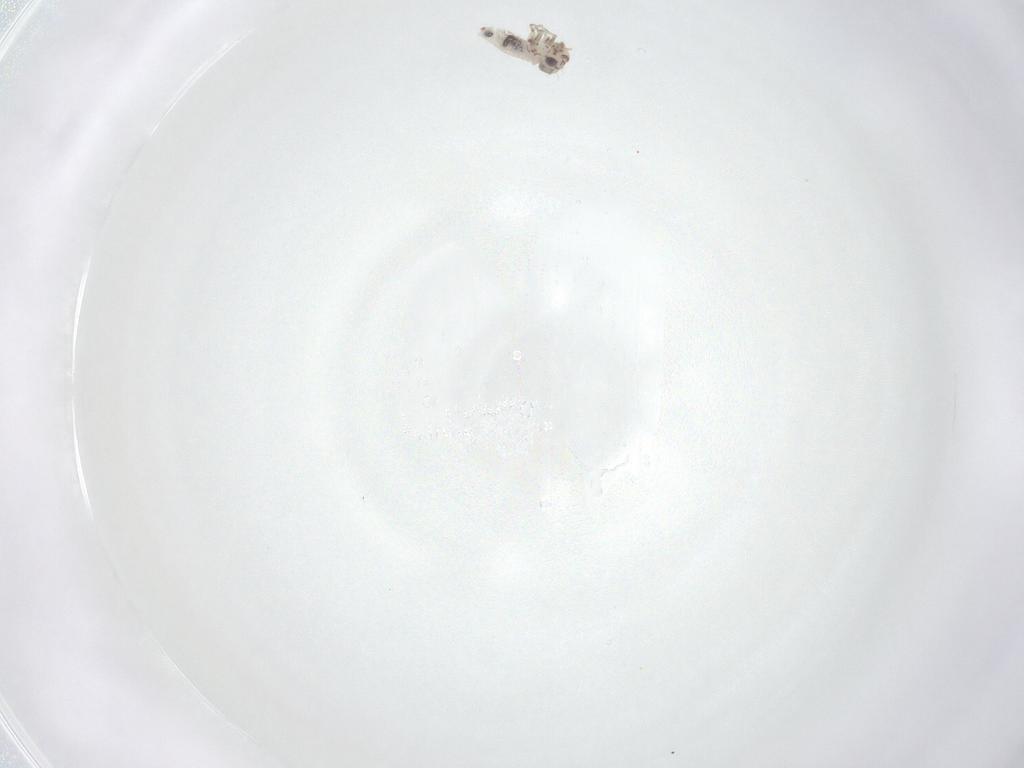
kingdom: Animalia
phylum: Arthropoda
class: Insecta
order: Psocodea
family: Amphientomidae
